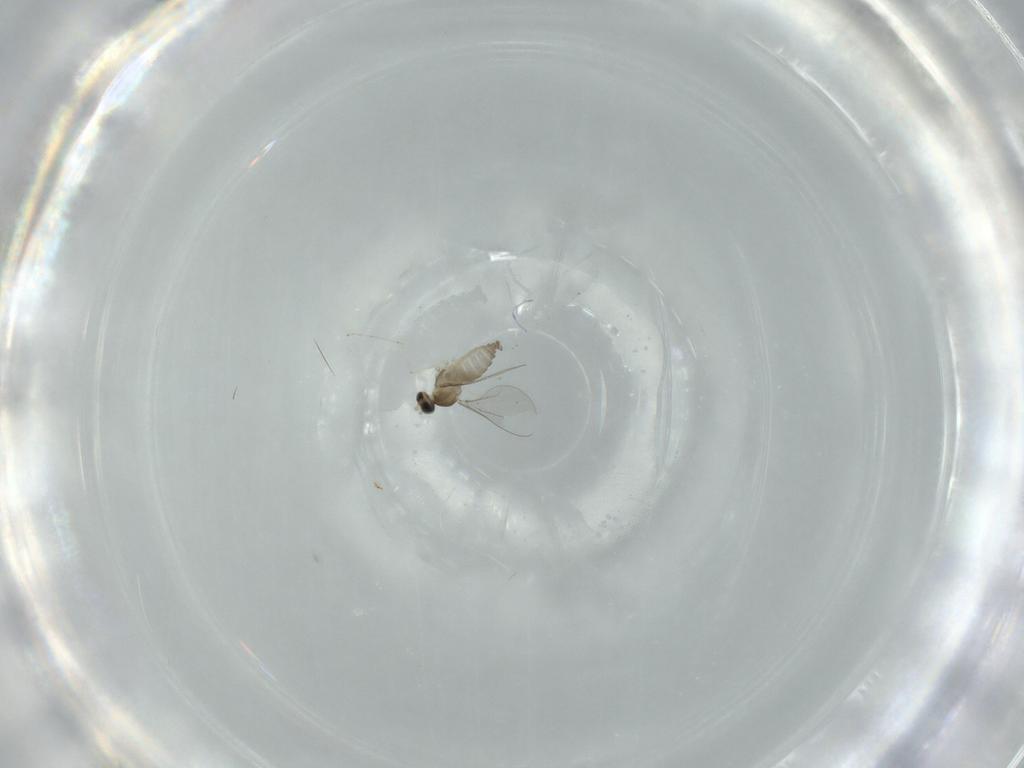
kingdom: Animalia
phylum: Arthropoda
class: Insecta
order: Diptera
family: Cecidomyiidae
